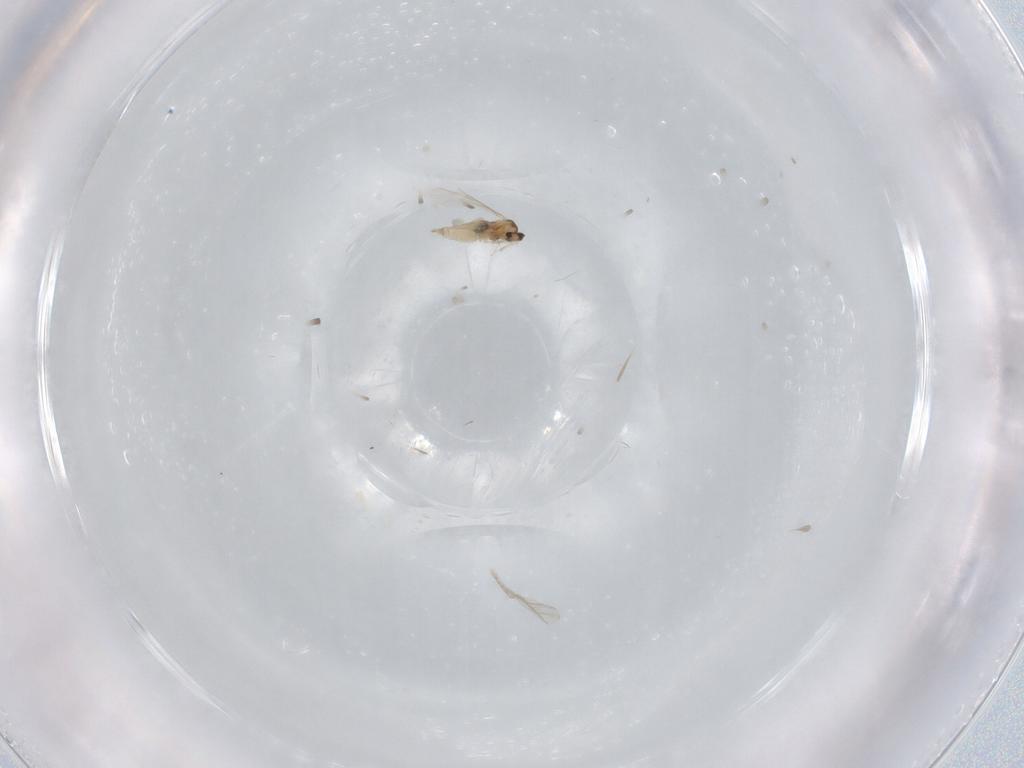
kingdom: Animalia
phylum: Arthropoda
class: Insecta
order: Diptera
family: Cecidomyiidae
